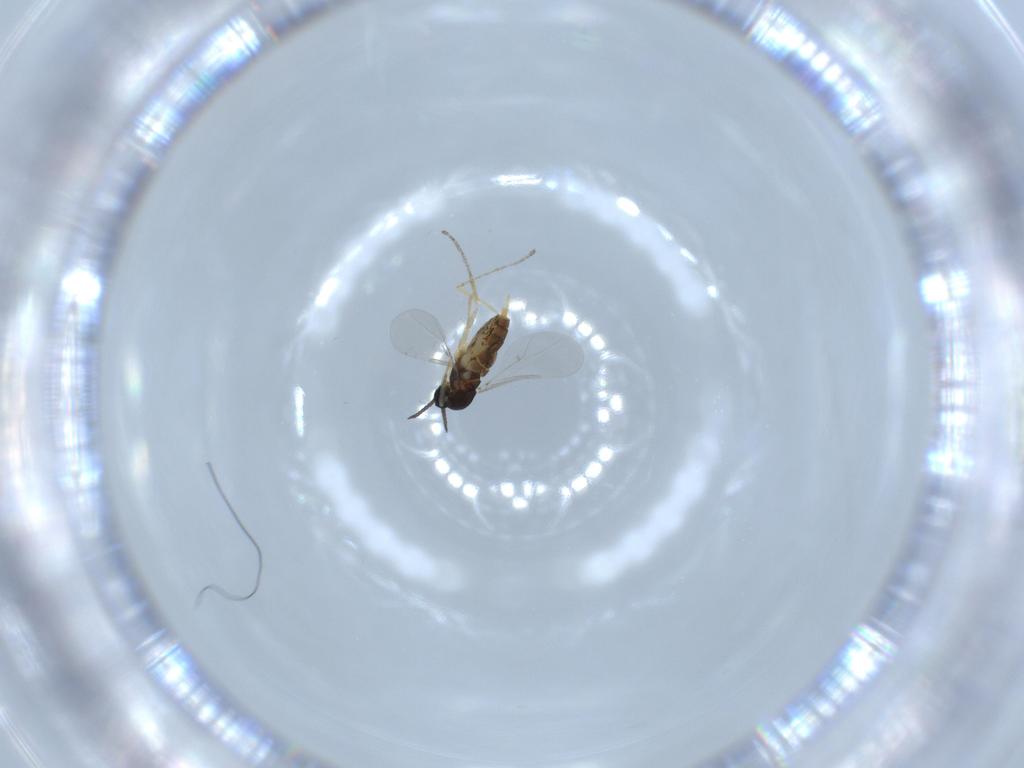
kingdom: Animalia
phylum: Arthropoda
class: Insecta
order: Diptera
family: Cecidomyiidae
